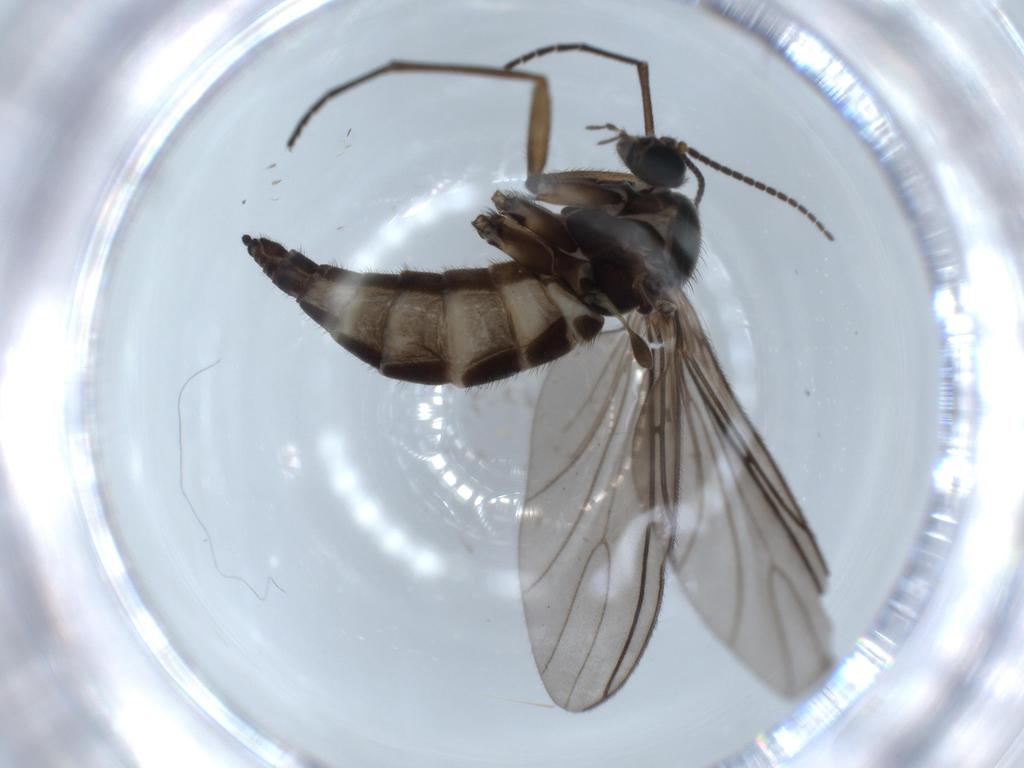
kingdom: Animalia
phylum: Arthropoda
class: Insecta
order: Diptera
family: Sciaridae
